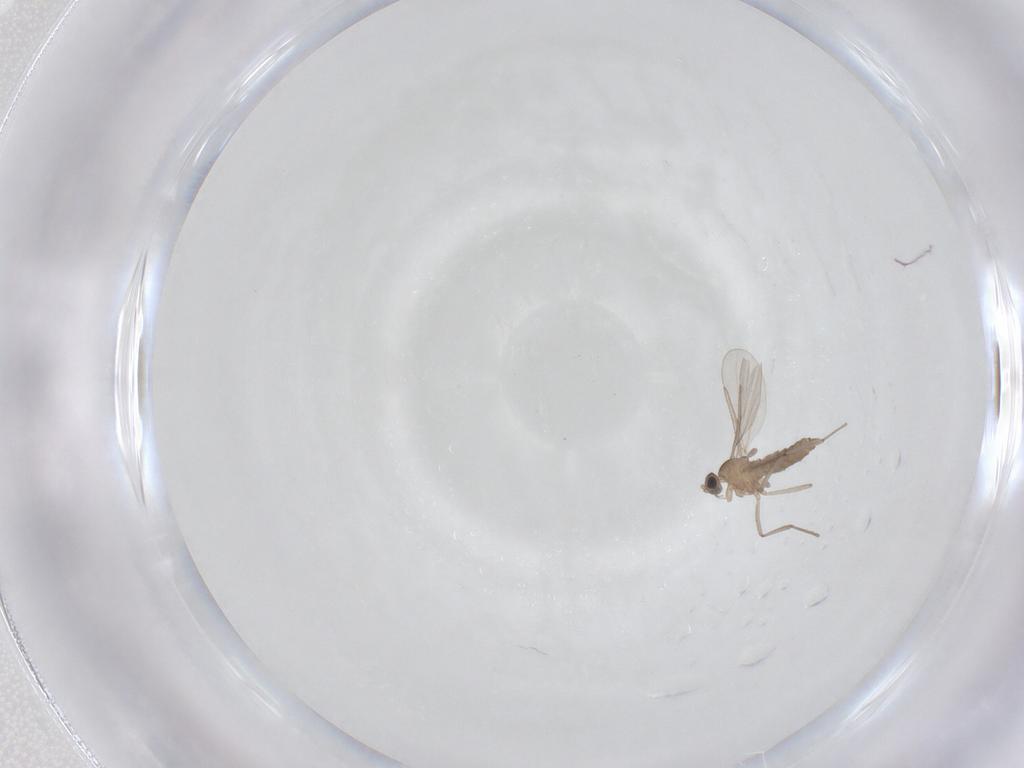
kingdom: Animalia
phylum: Arthropoda
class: Insecta
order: Diptera
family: Cecidomyiidae
